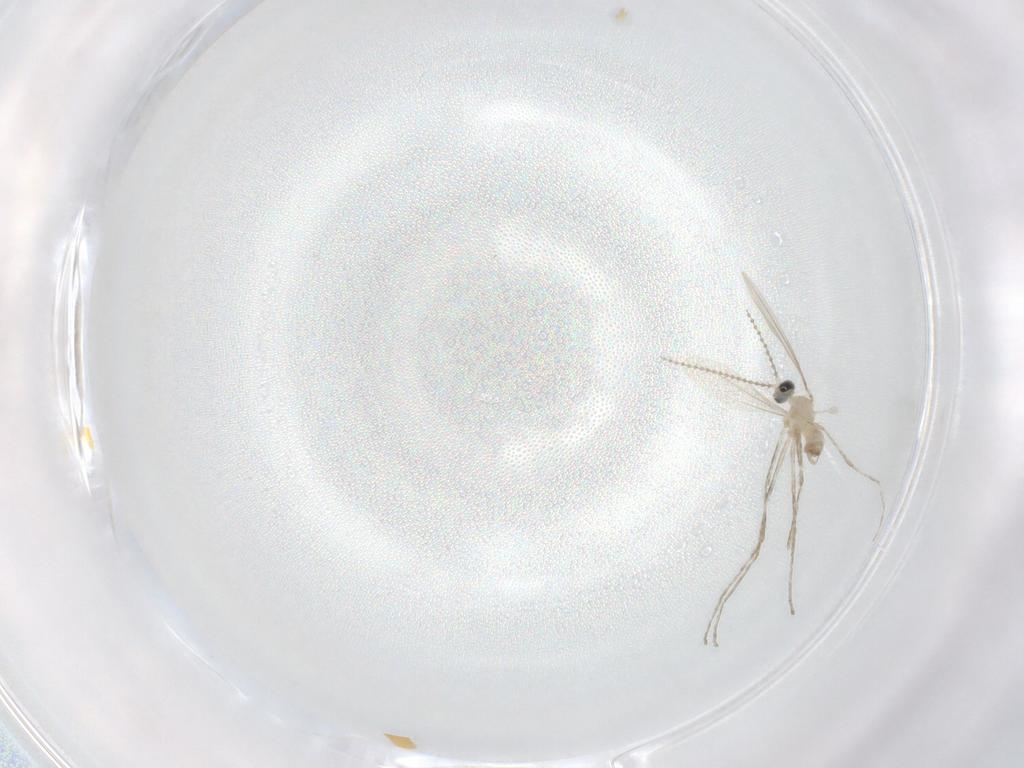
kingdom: Animalia
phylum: Arthropoda
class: Insecta
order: Diptera
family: Cecidomyiidae
